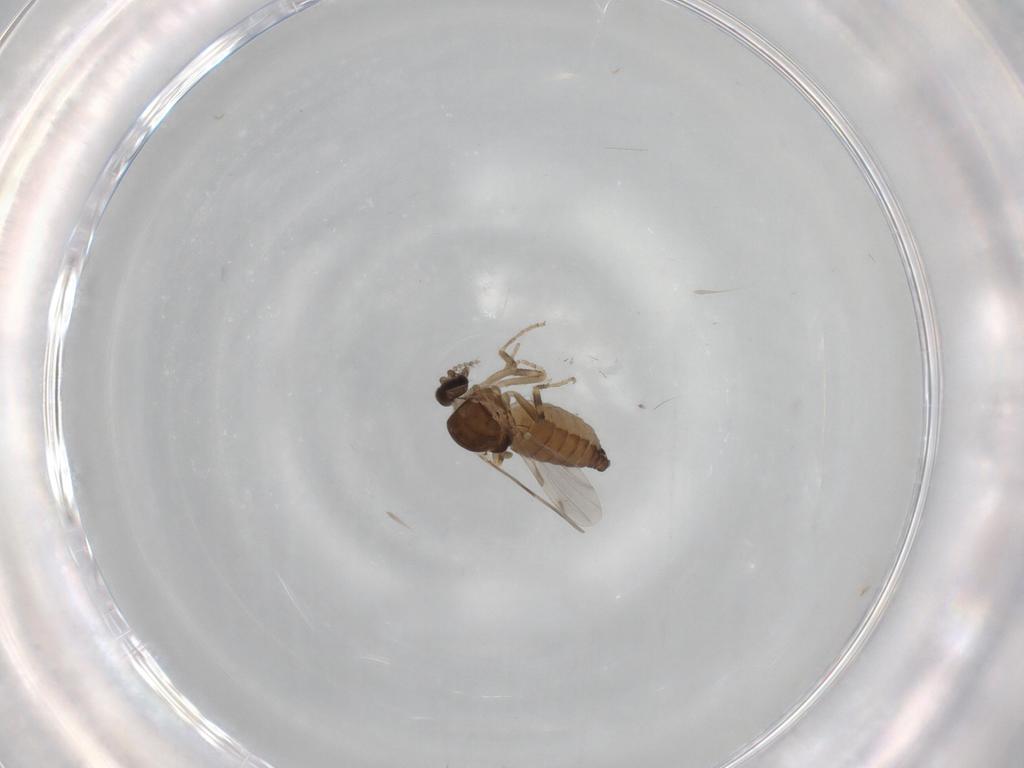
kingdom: Animalia
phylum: Arthropoda
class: Insecta
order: Diptera
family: Ceratopogonidae
